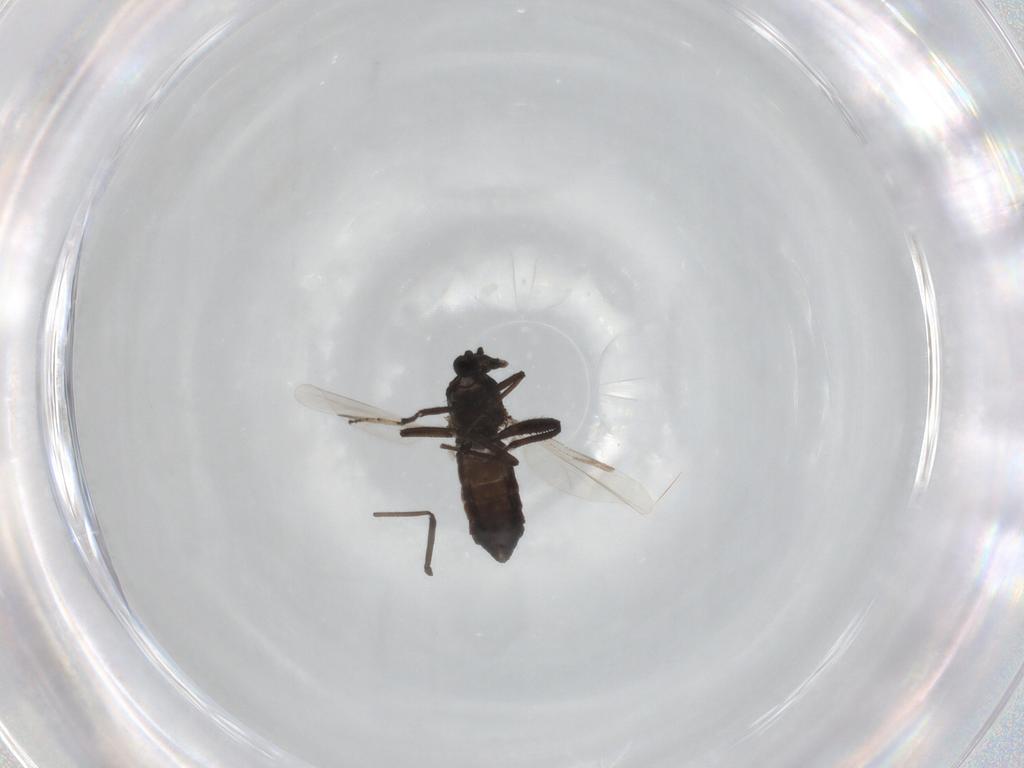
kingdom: Animalia
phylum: Arthropoda
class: Insecta
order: Diptera
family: Ceratopogonidae
